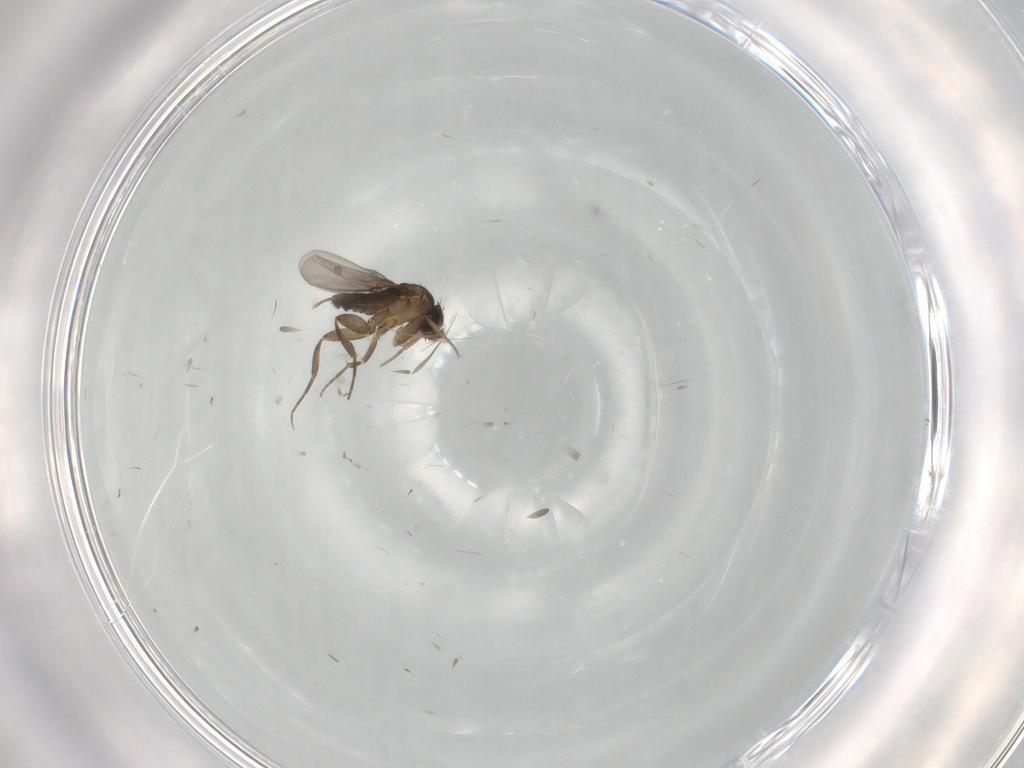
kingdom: Animalia
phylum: Arthropoda
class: Insecta
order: Diptera
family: Phoridae
